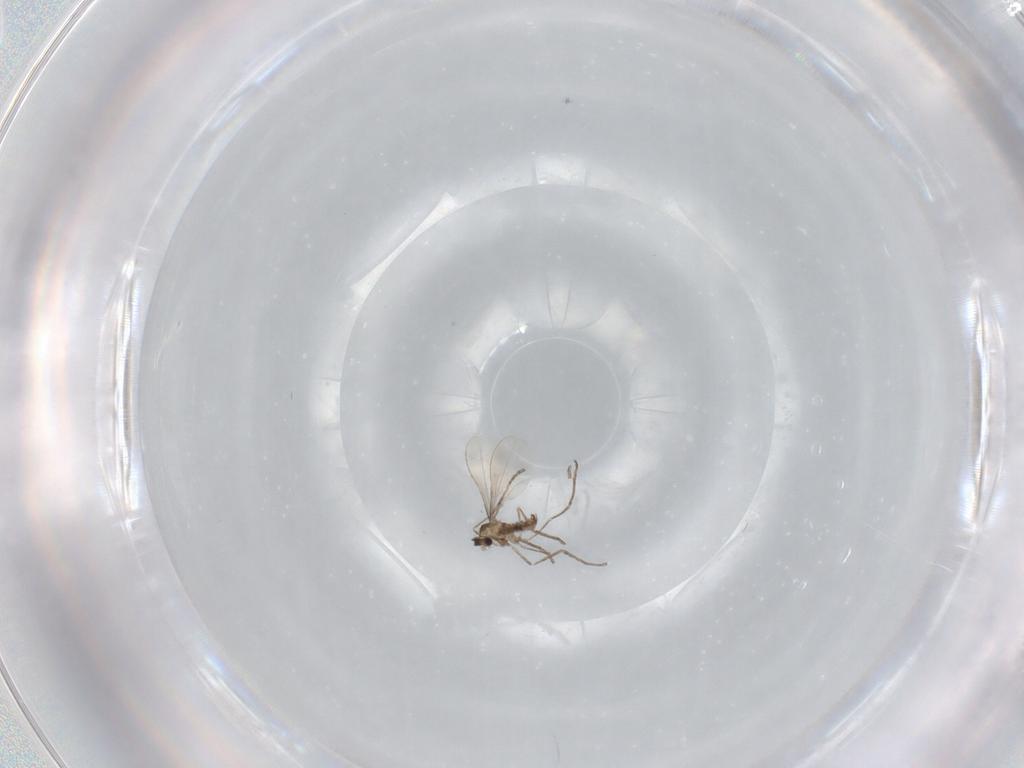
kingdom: Animalia
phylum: Arthropoda
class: Insecta
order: Diptera
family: Cecidomyiidae
